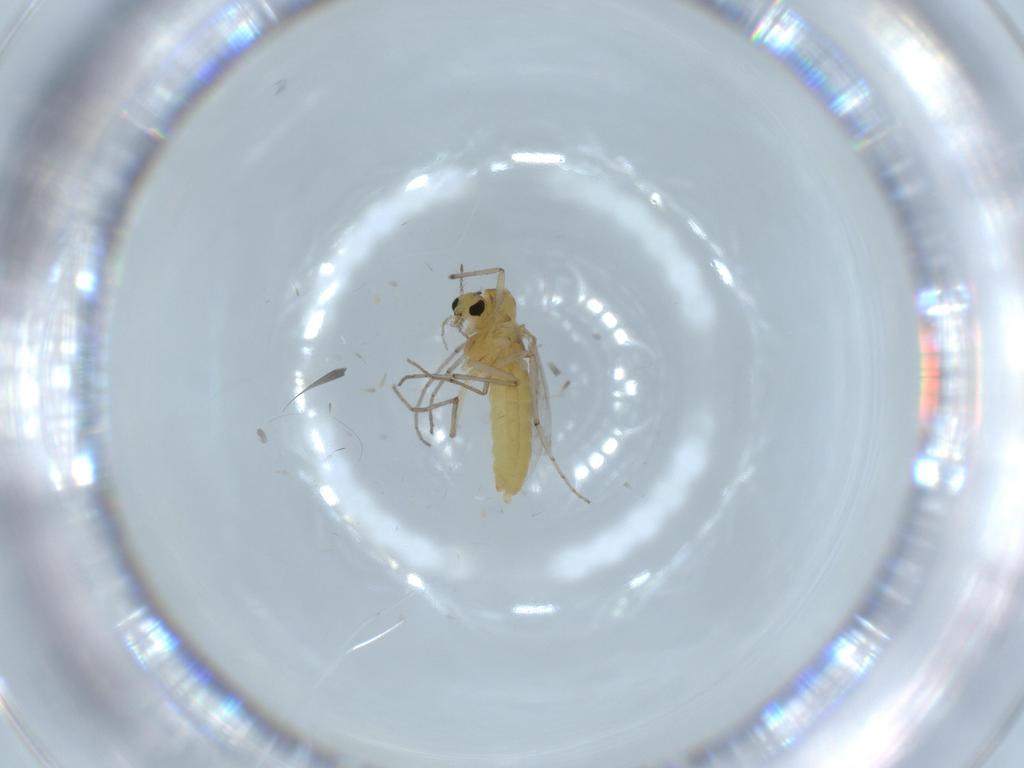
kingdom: Animalia
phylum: Arthropoda
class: Insecta
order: Diptera
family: Chironomidae
